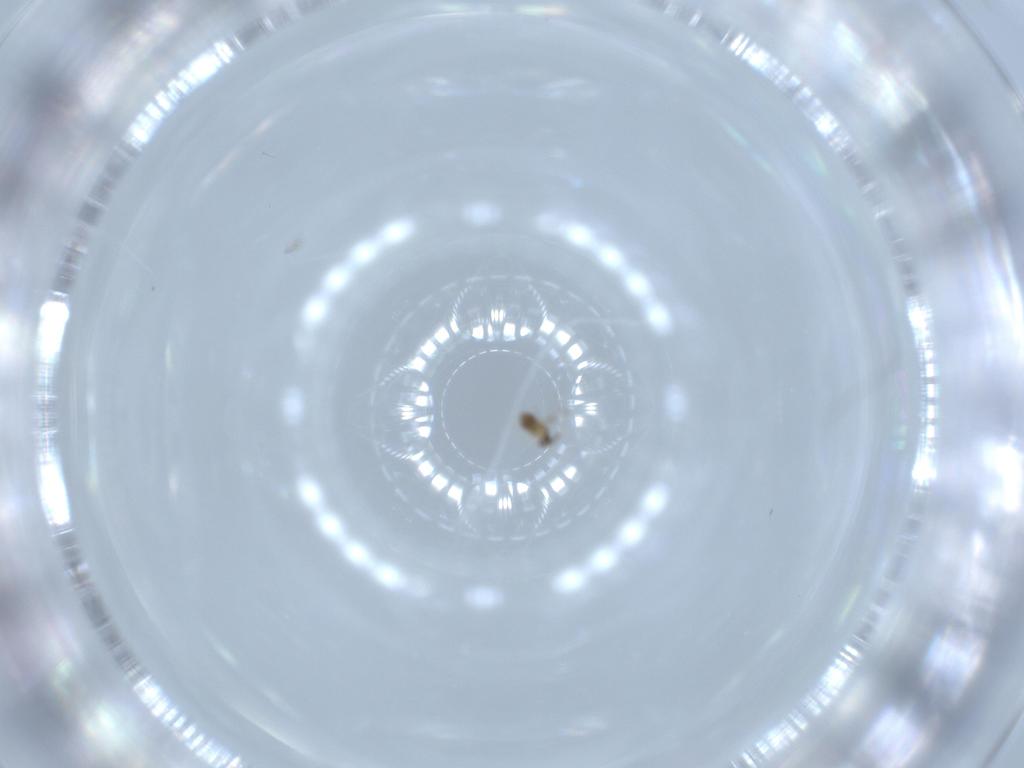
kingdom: Animalia
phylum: Arthropoda
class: Insecta
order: Hymenoptera
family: Mymaridae
